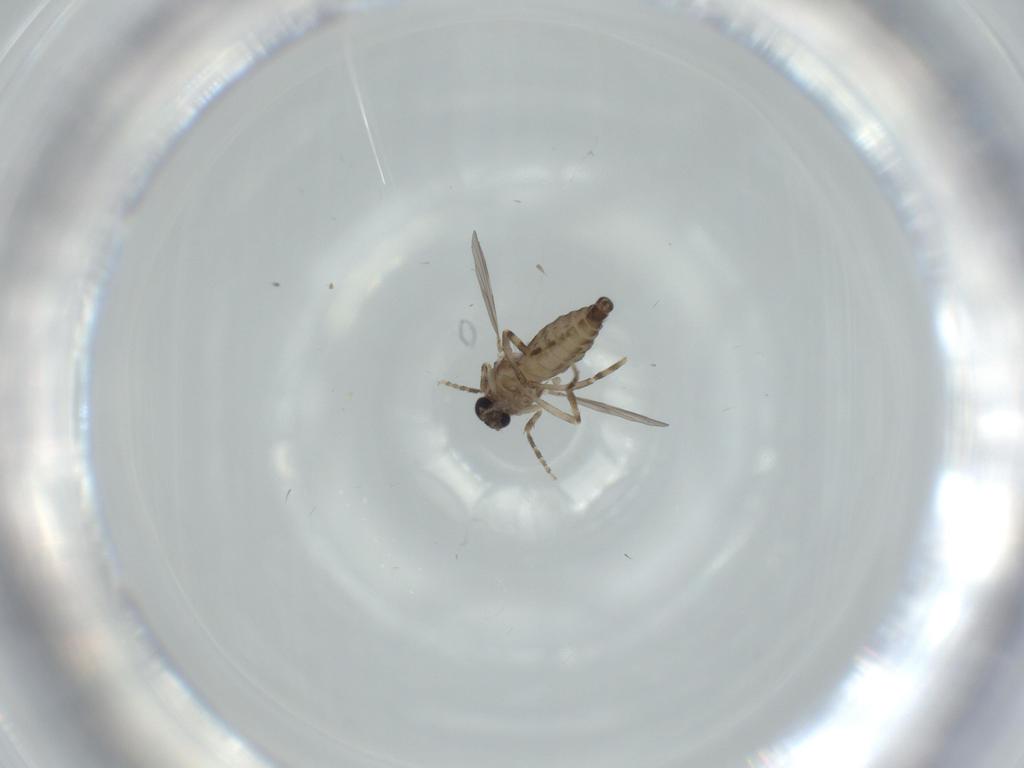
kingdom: Animalia
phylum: Arthropoda
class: Insecta
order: Diptera
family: Ceratopogonidae
